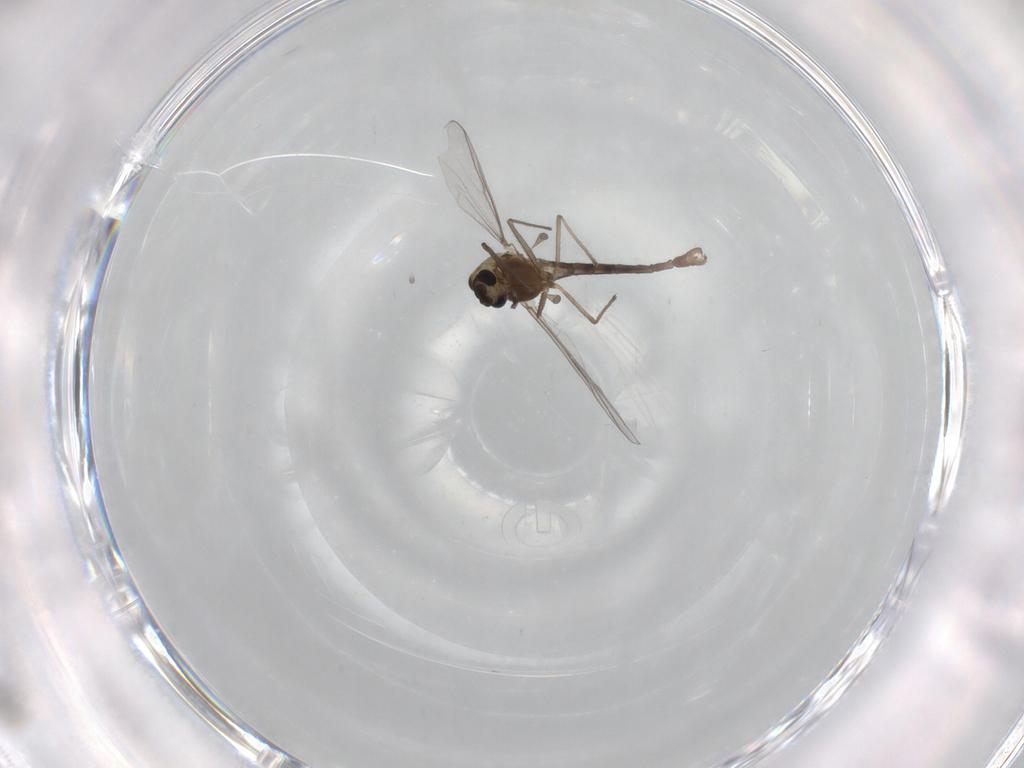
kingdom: Animalia
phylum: Arthropoda
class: Insecta
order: Diptera
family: Chironomidae
